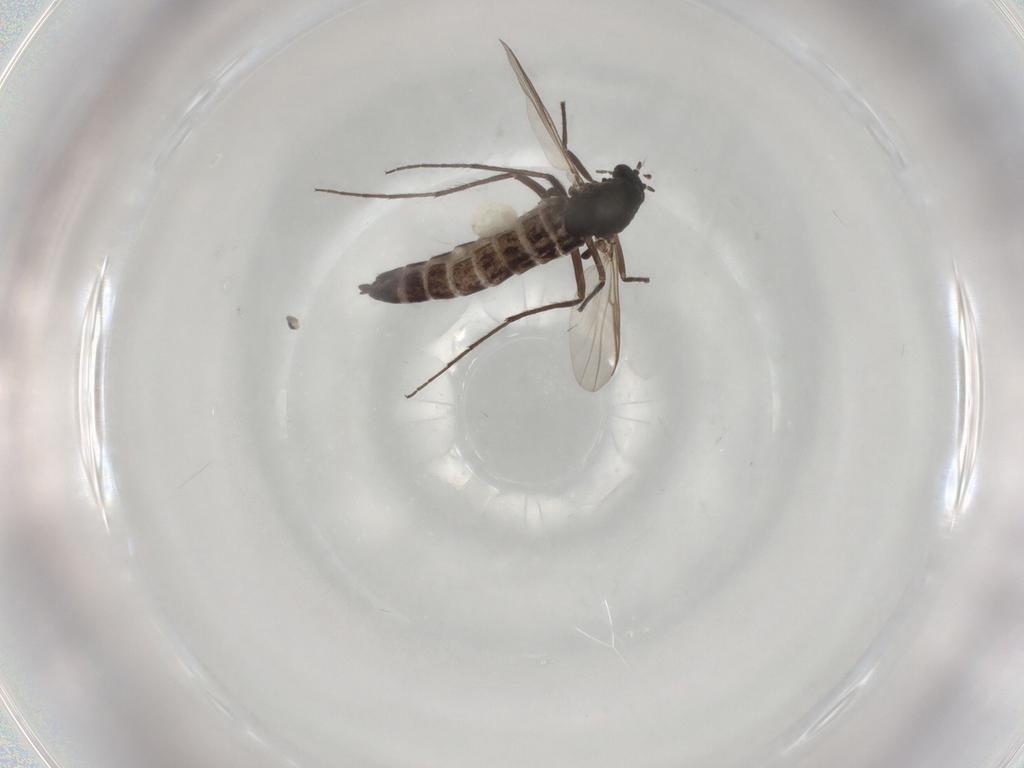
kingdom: Animalia
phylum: Arthropoda
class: Insecta
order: Diptera
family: Chironomidae
